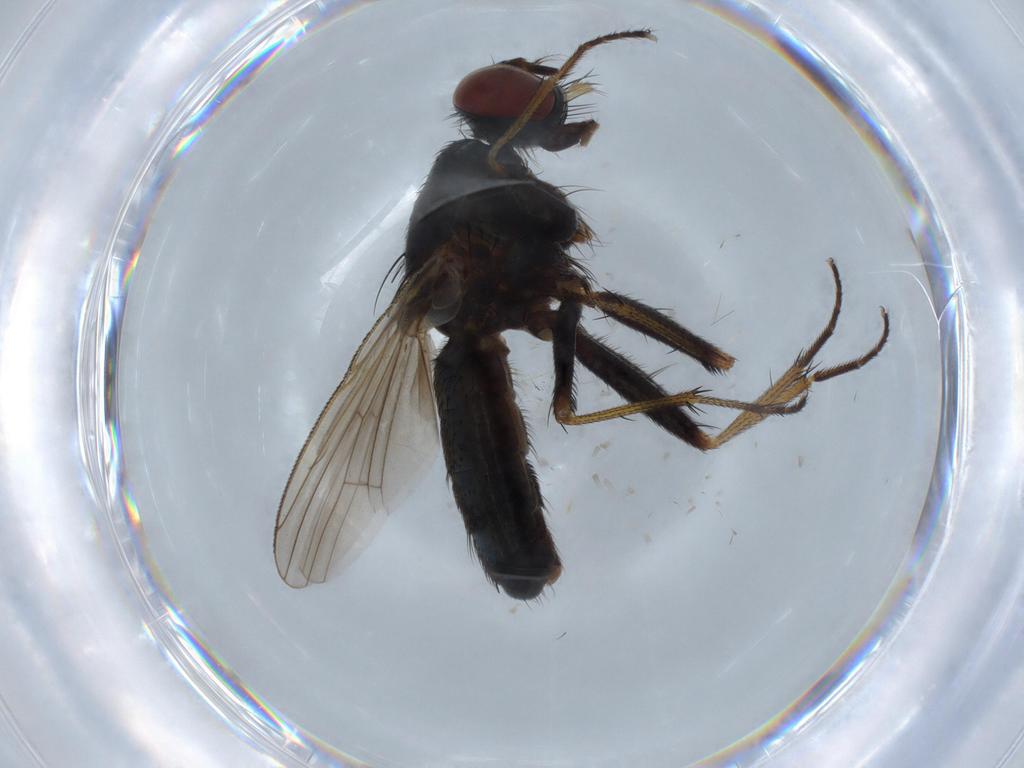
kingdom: Animalia
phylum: Arthropoda
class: Insecta
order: Diptera
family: Muscidae
